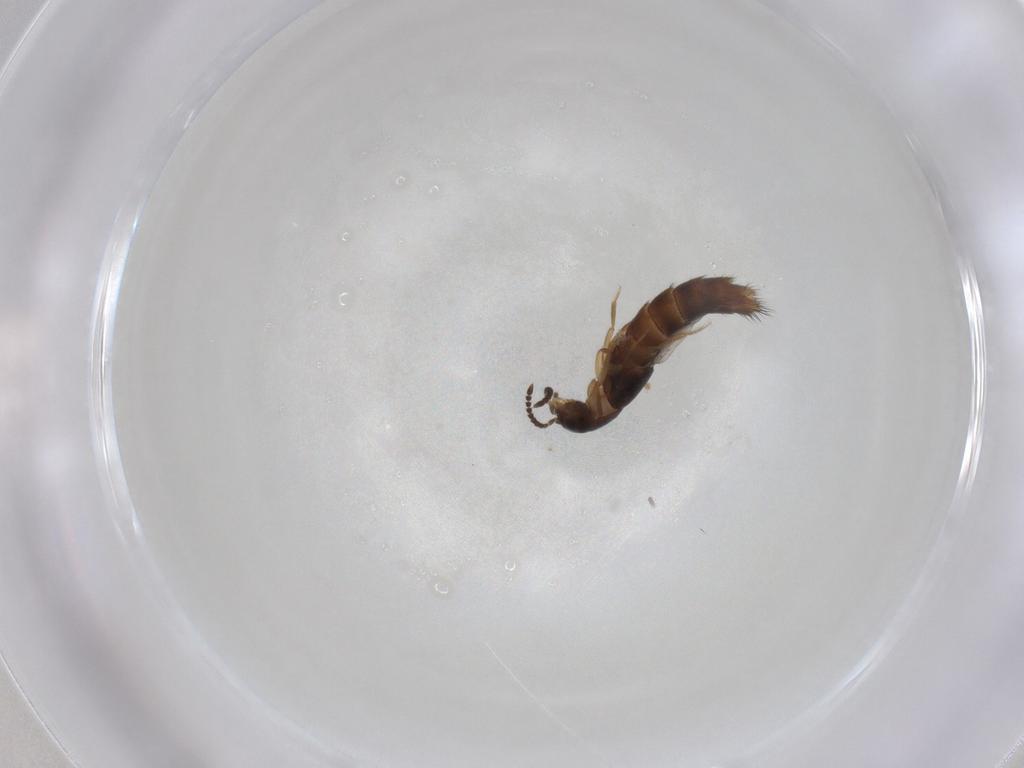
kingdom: Animalia
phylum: Arthropoda
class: Insecta
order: Coleoptera
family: Staphylinidae
